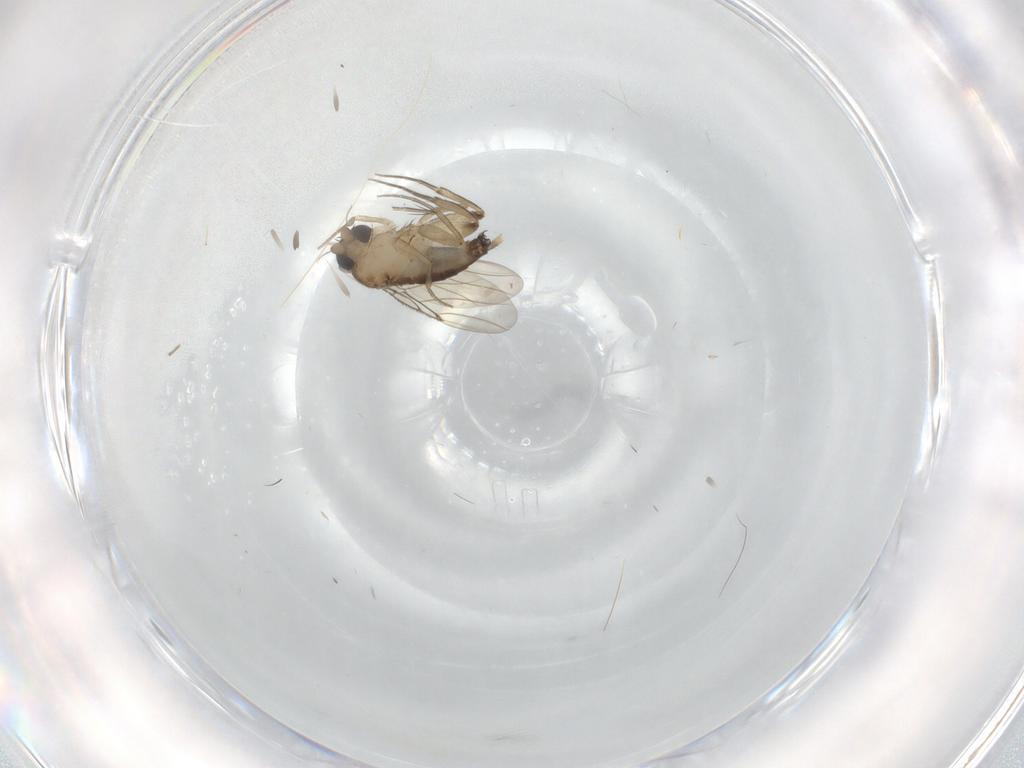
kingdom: Animalia
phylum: Arthropoda
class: Insecta
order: Diptera
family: Phoridae
